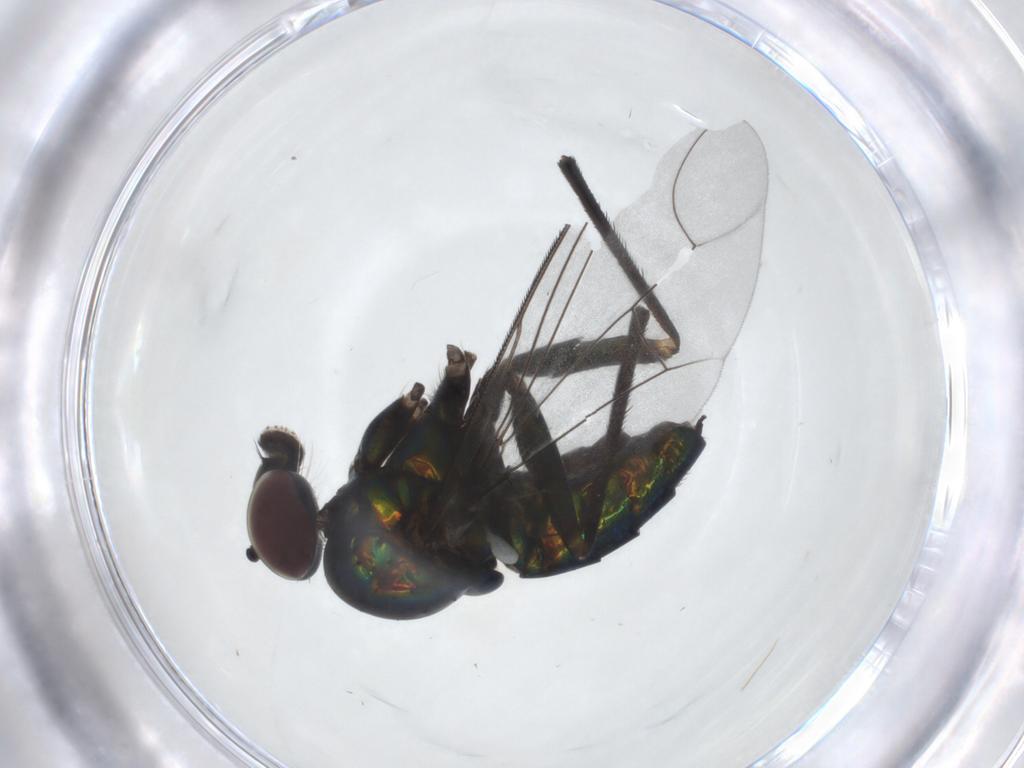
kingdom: Animalia
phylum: Arthropoda
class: Insecta
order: Diptera
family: Dolichopodidae
